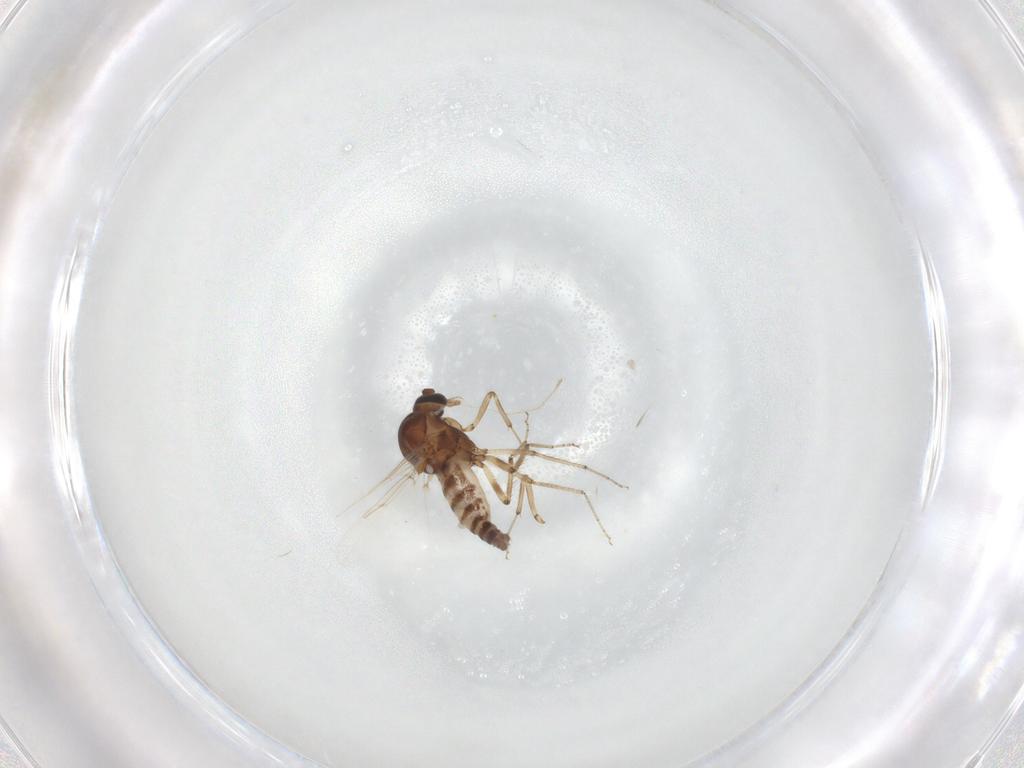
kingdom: Animalia
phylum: Arthropoda
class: Insecta
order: Diptera
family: Ceratopogonidae
